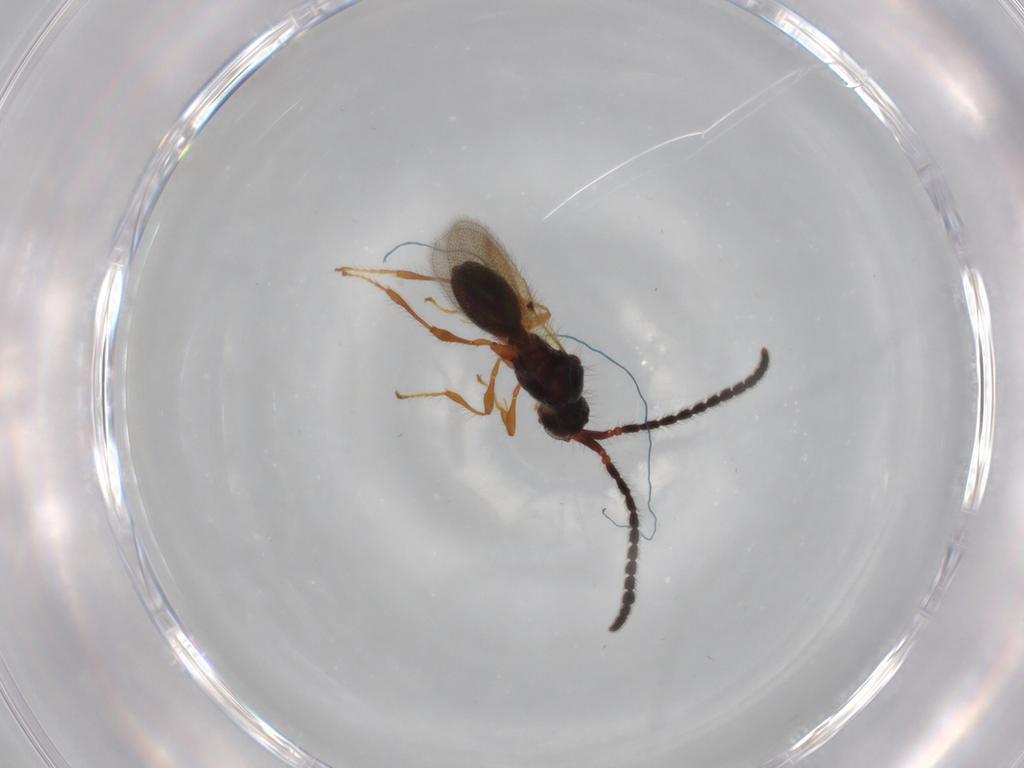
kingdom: Animalia
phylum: Arthropoda
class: Insecta
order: Hymenoptera
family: Diapriidae
